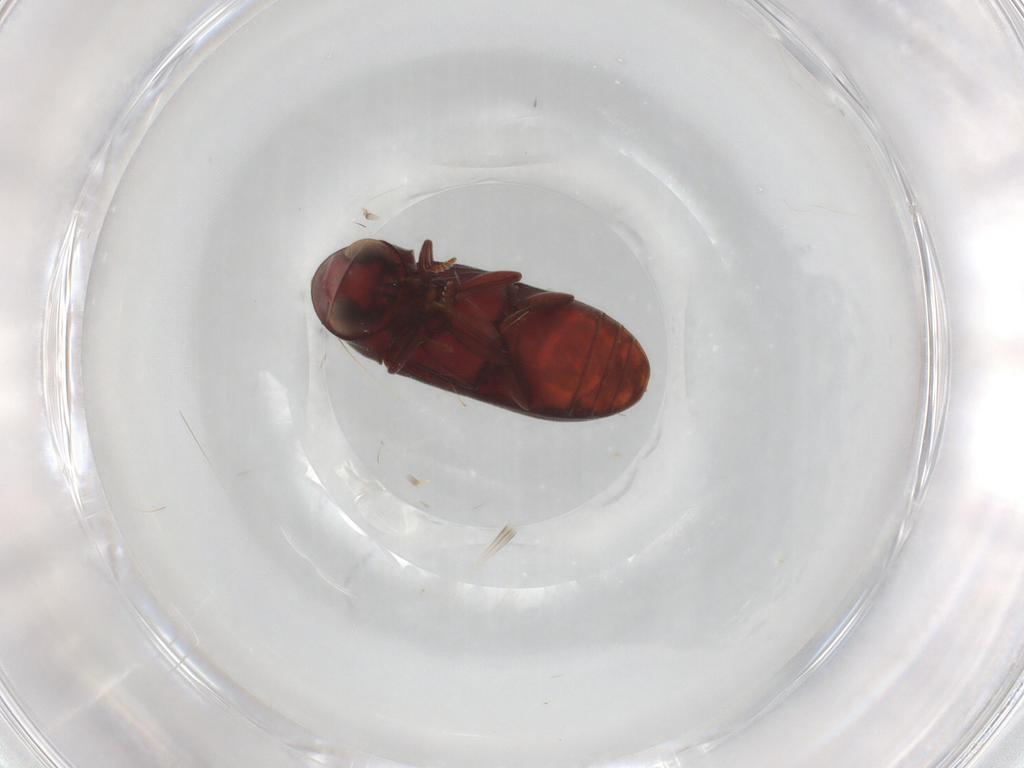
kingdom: Animalia
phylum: Arthropoda
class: Insecta
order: Coleoptera
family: Ptinidae
